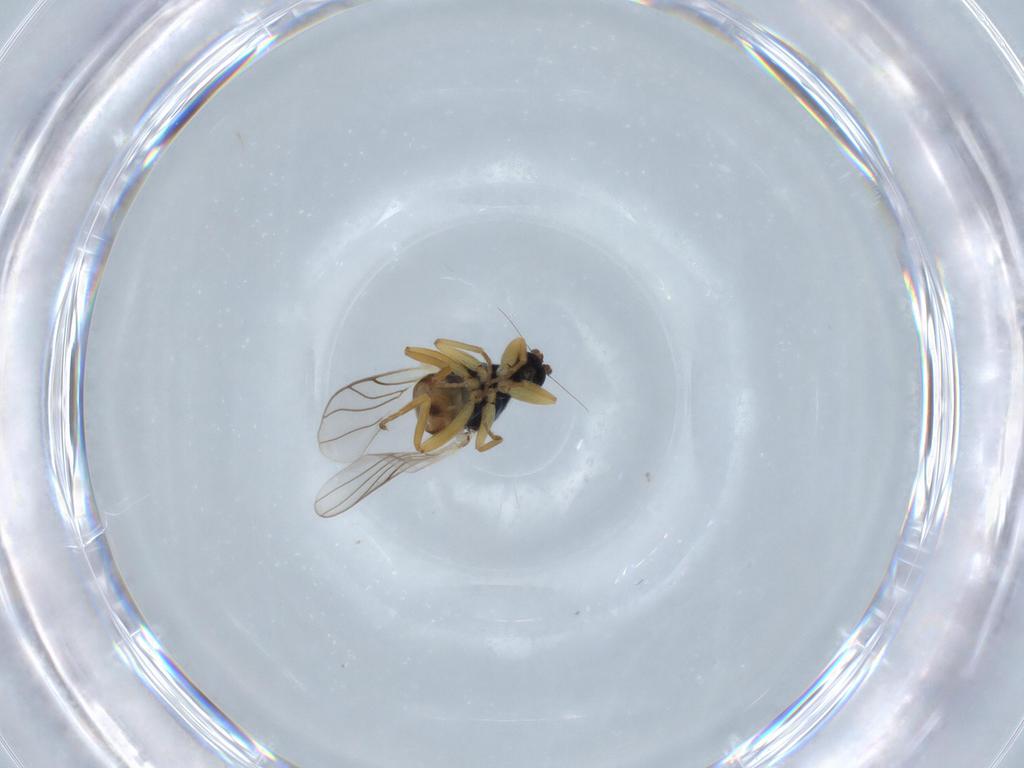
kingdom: Animalia
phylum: Arthropoda
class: Insecta
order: Diptera
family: Hybotidae
